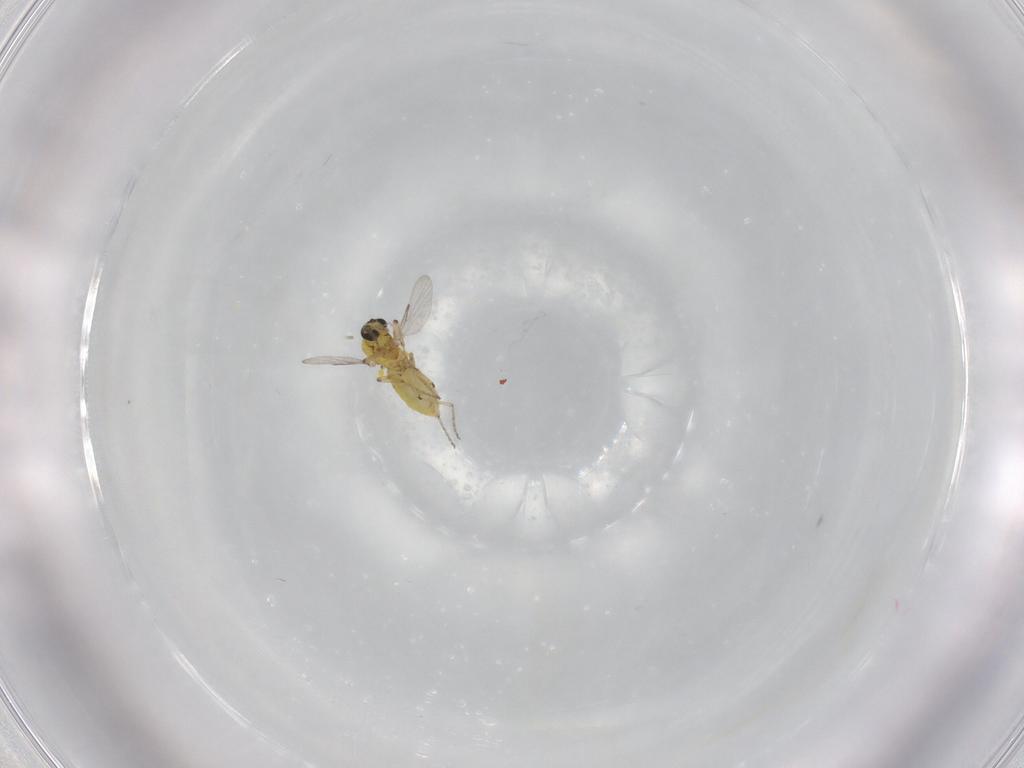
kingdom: Animalia
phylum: Arthropoda
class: Insecta
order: Diptera
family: Ceratopogonidae
